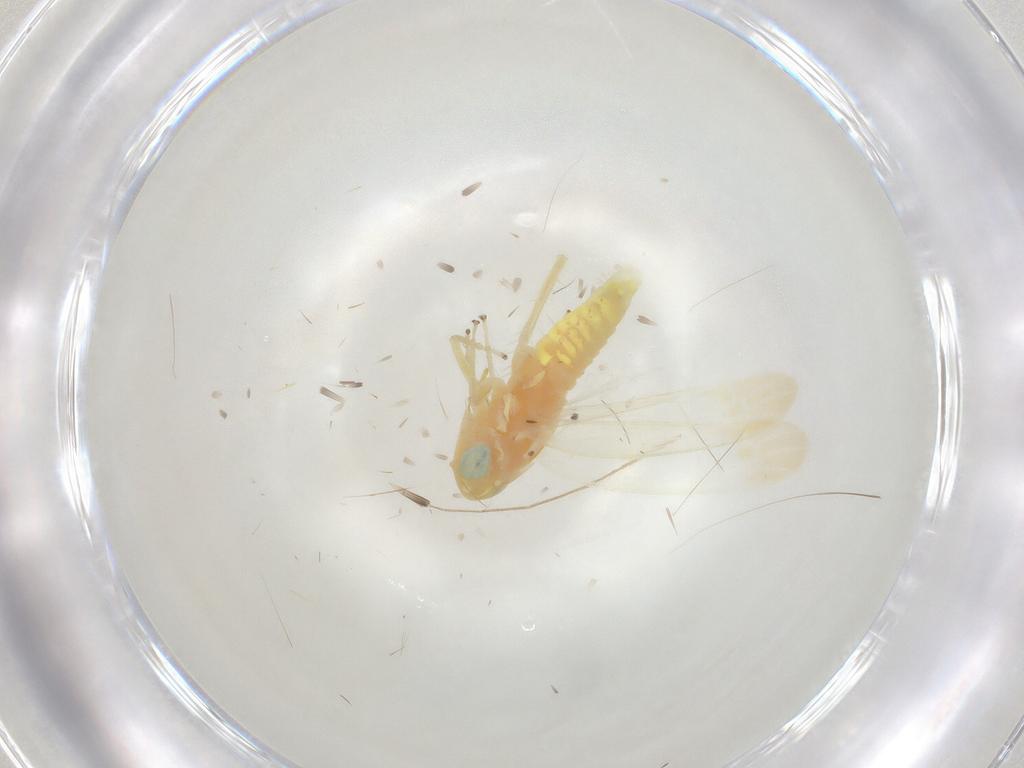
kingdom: Animalia
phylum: Arthropoda
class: Insecta
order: Hemiptera
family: Cicadellidae
